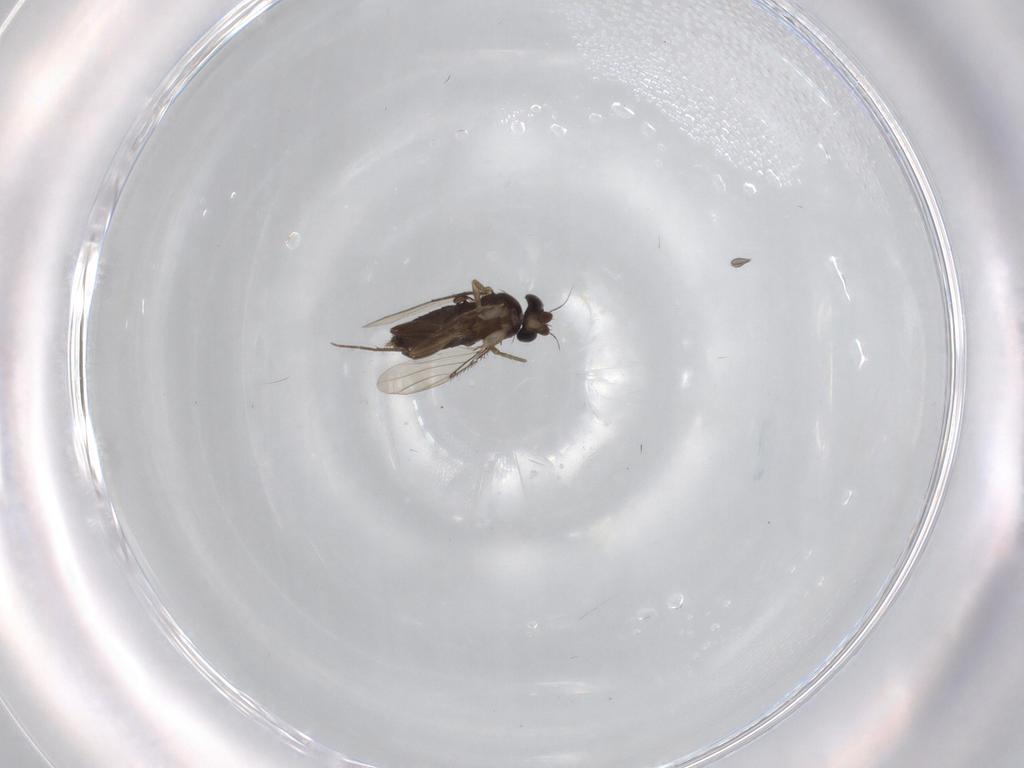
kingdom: Animalia
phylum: Arthropoda
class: Insecta
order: Diptera
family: Phoridae
